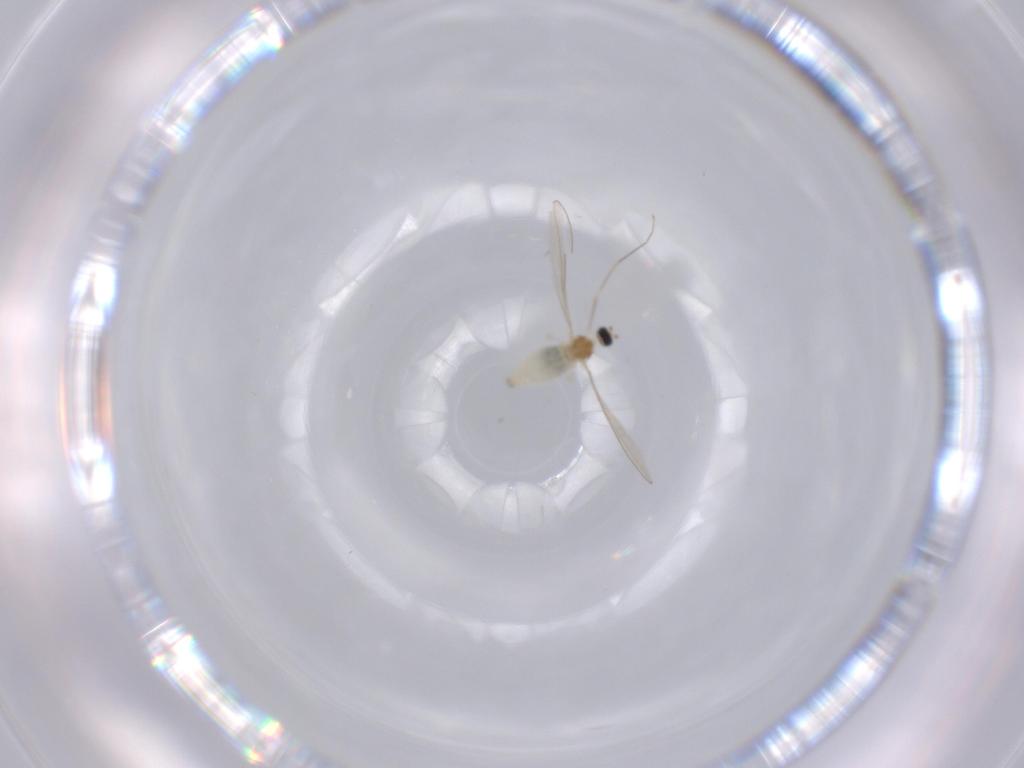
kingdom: Animalia
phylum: Arthropoda
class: Insecta
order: Diptera
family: Cecidomyiidae
